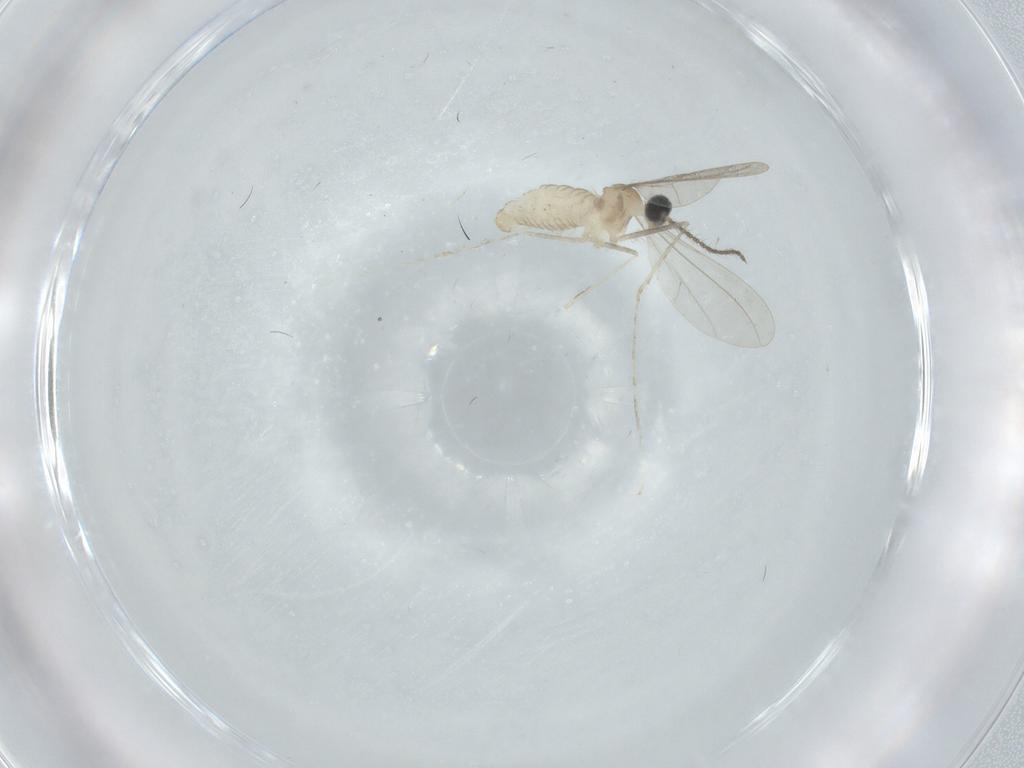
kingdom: Animalia
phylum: Arthropoda
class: Insecta
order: Diptera
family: Cecidomyiidae
